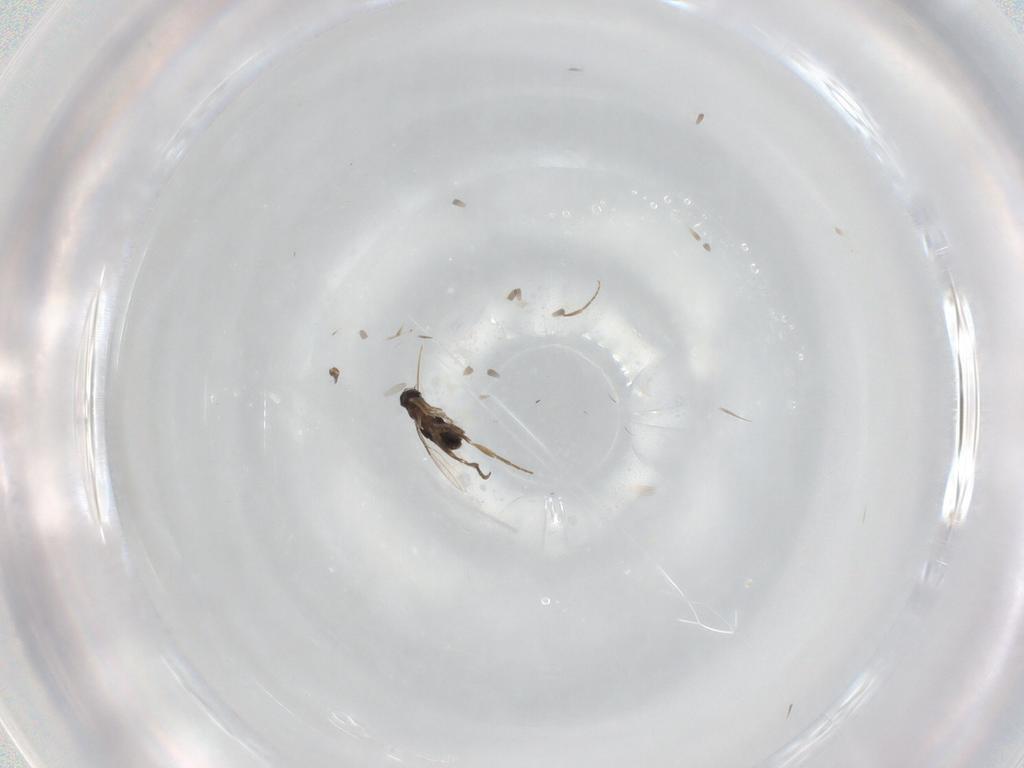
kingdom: Animalia
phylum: Arthropoda
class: Insecta
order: Diptera
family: Phoridae
